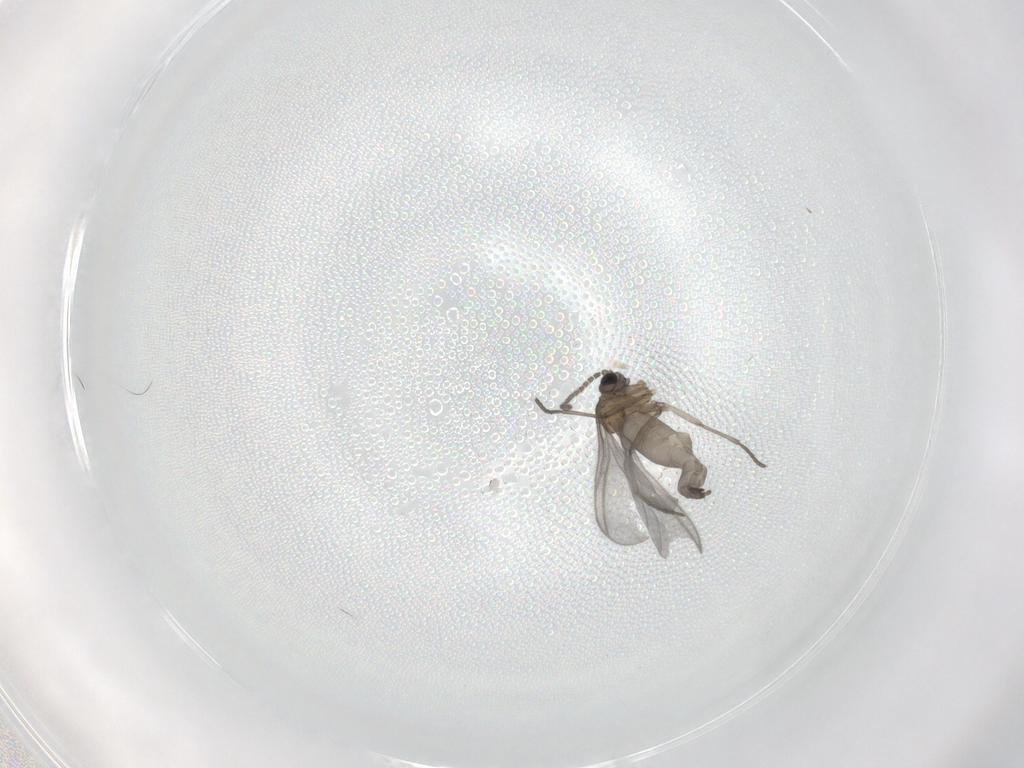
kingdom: Animalia
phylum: Arthropoda
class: Insecta
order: Diptera
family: Sciaridae
